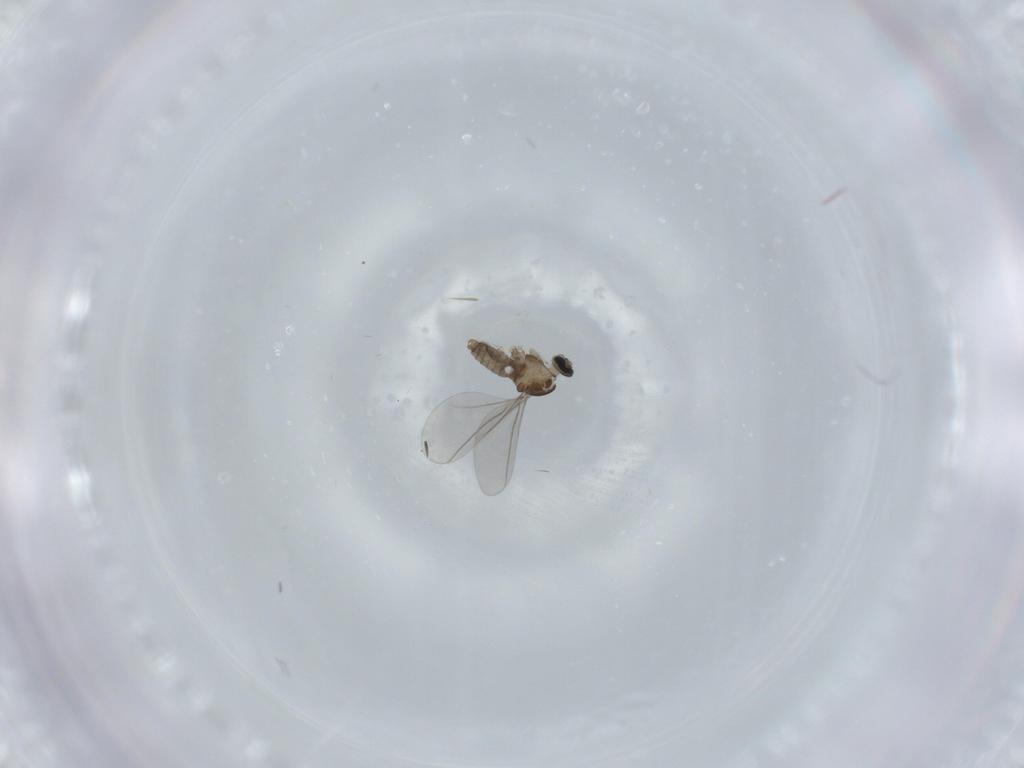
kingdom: Animalia
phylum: Arthropoda
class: Insecta
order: Diptera
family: Cecidomyiidae
